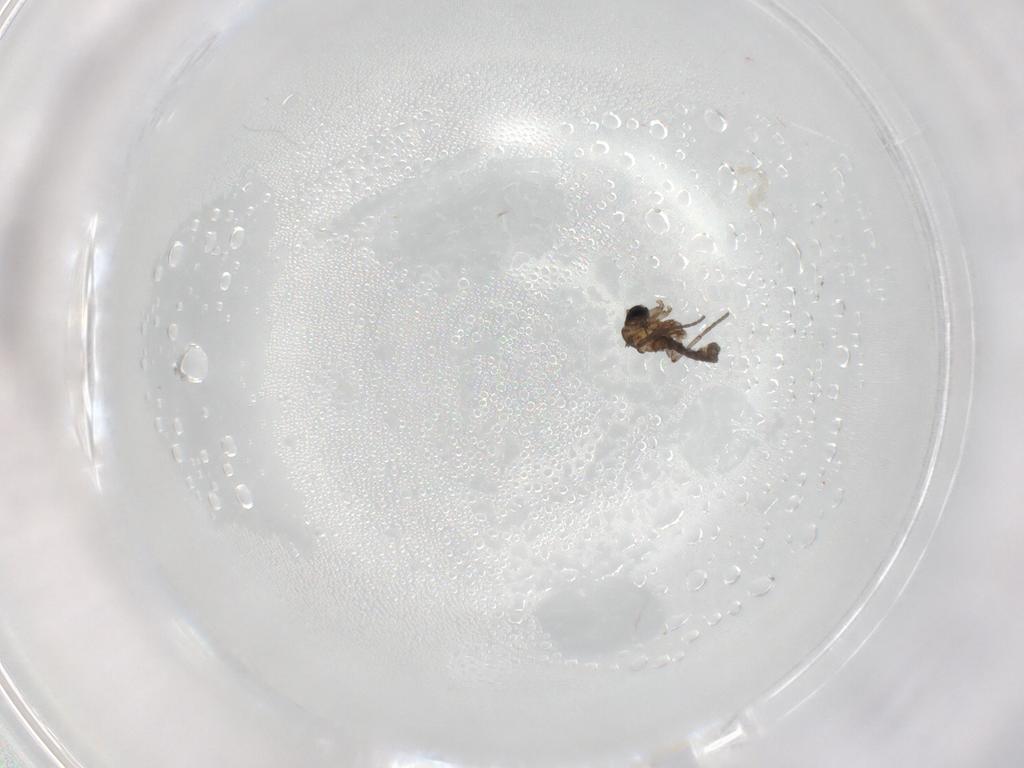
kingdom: Animalia
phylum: Arthropoda
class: Insecta
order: Diptera
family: Sciaridae
